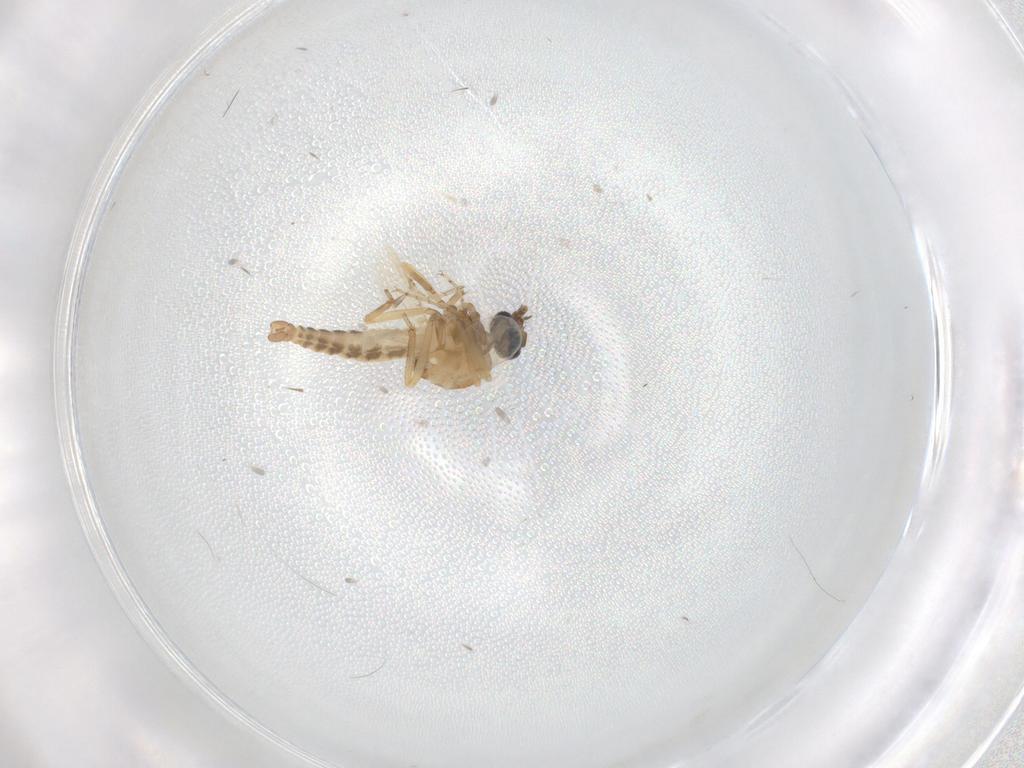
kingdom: Animalia
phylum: Arthropoda
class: Insecta
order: Diptera
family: Ceratopogonidae
